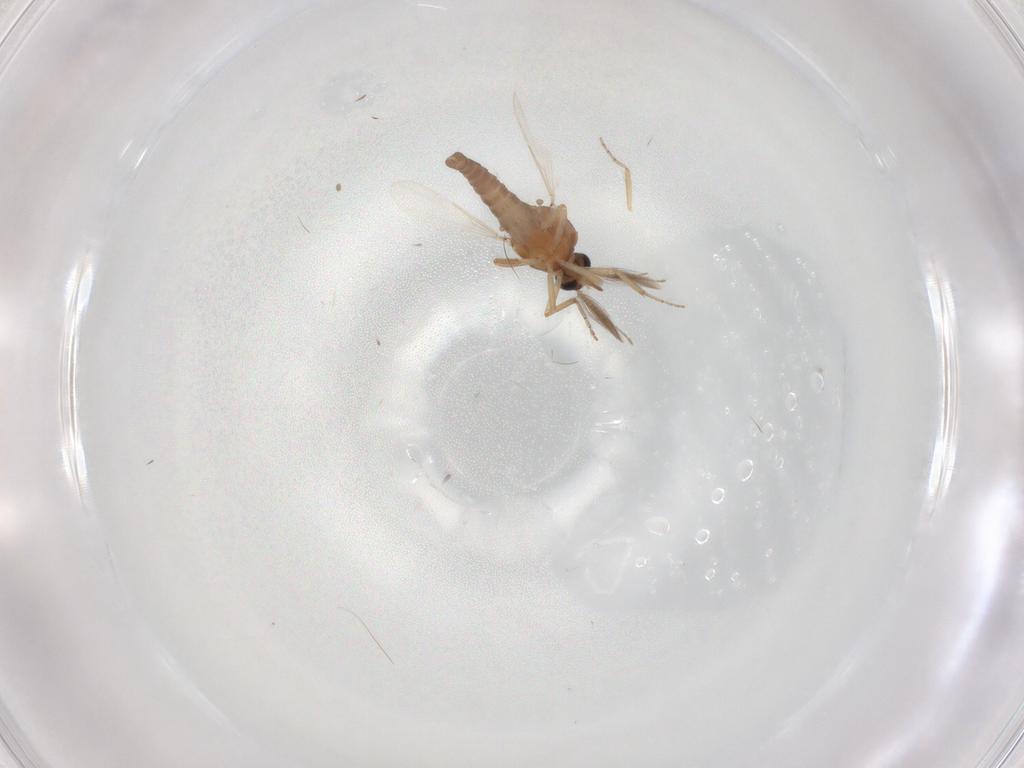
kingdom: Animalia
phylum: Arthropoda
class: Insecta
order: Diptera
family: Ceratopogonidae
